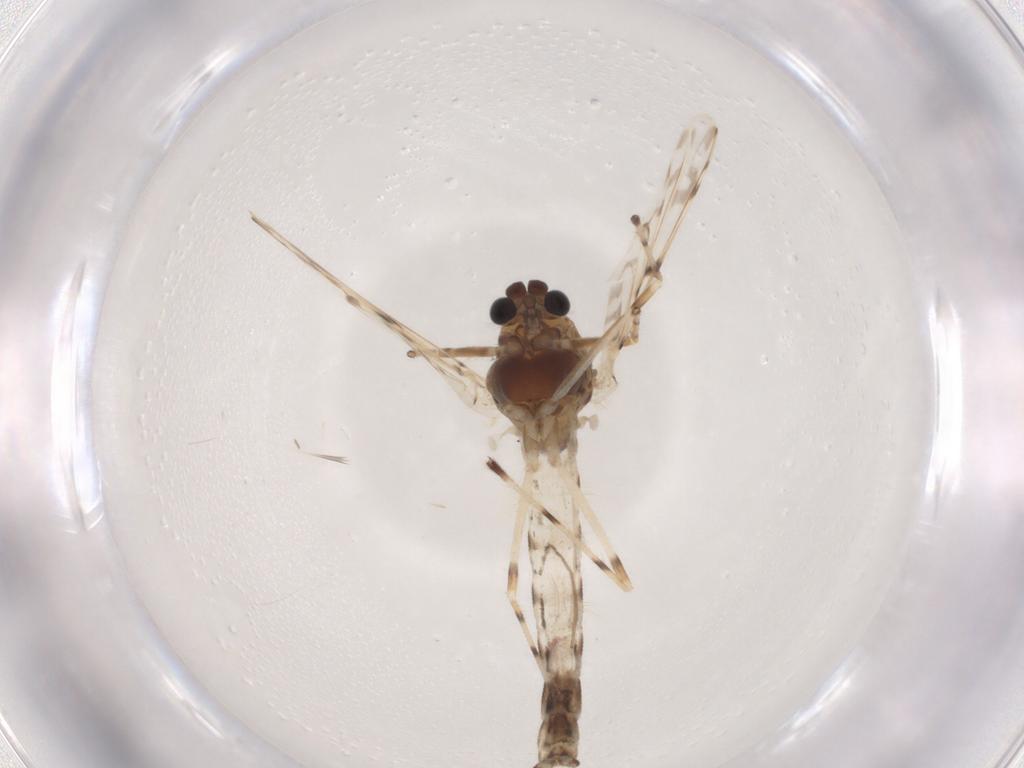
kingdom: Animalia
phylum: Arthropoda
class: Insecta
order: Diptera
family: Chironomidae
